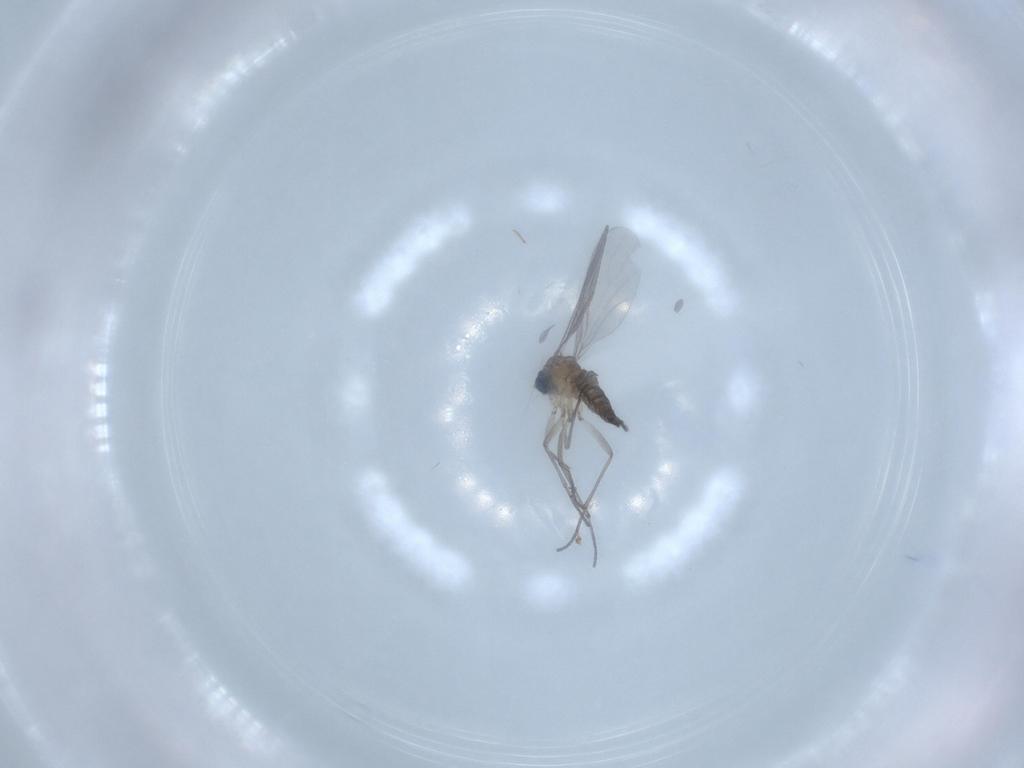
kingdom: Animalia
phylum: Arthropoda
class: Insecta
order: Diptera
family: Sciaridae
